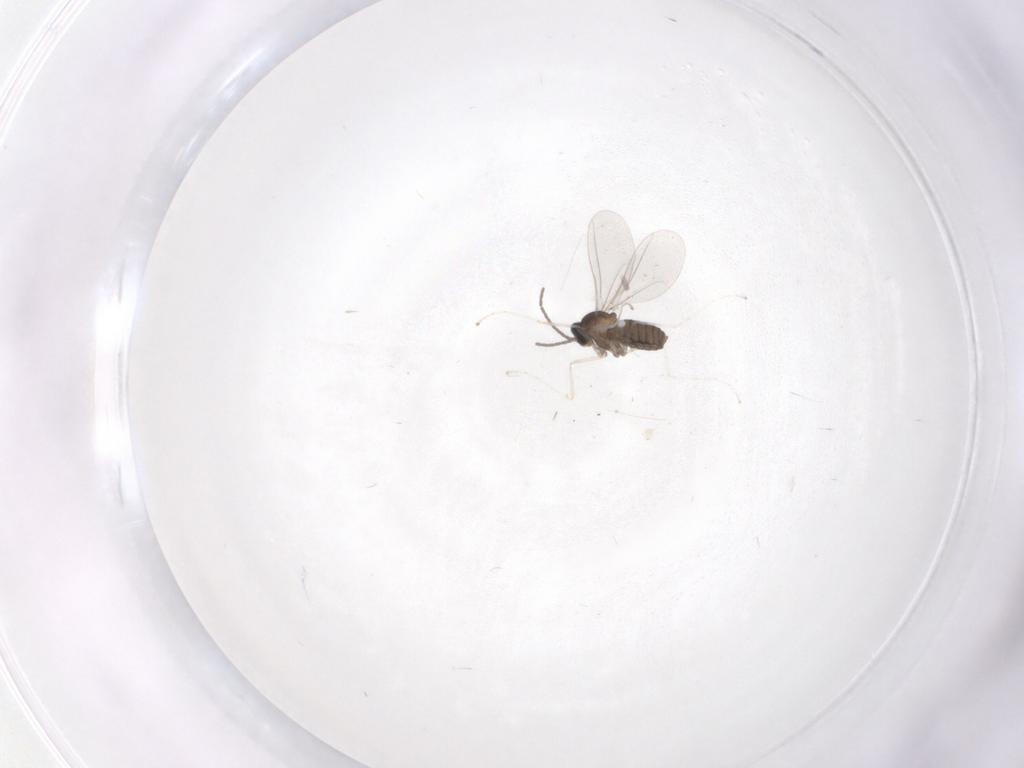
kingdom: Animalia
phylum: Arthropoda
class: Insecta
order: Diptera
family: Cecidomyiidae
